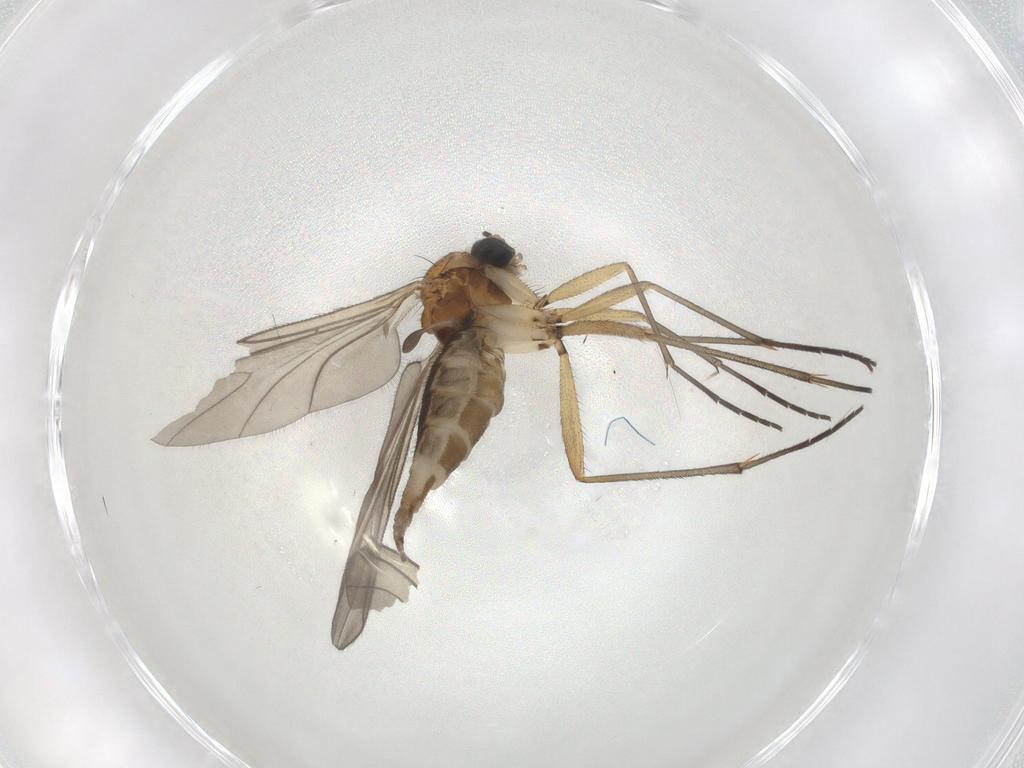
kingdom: Animalia
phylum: Arthropoda
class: Insecta
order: Diptera
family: Sciaridae
